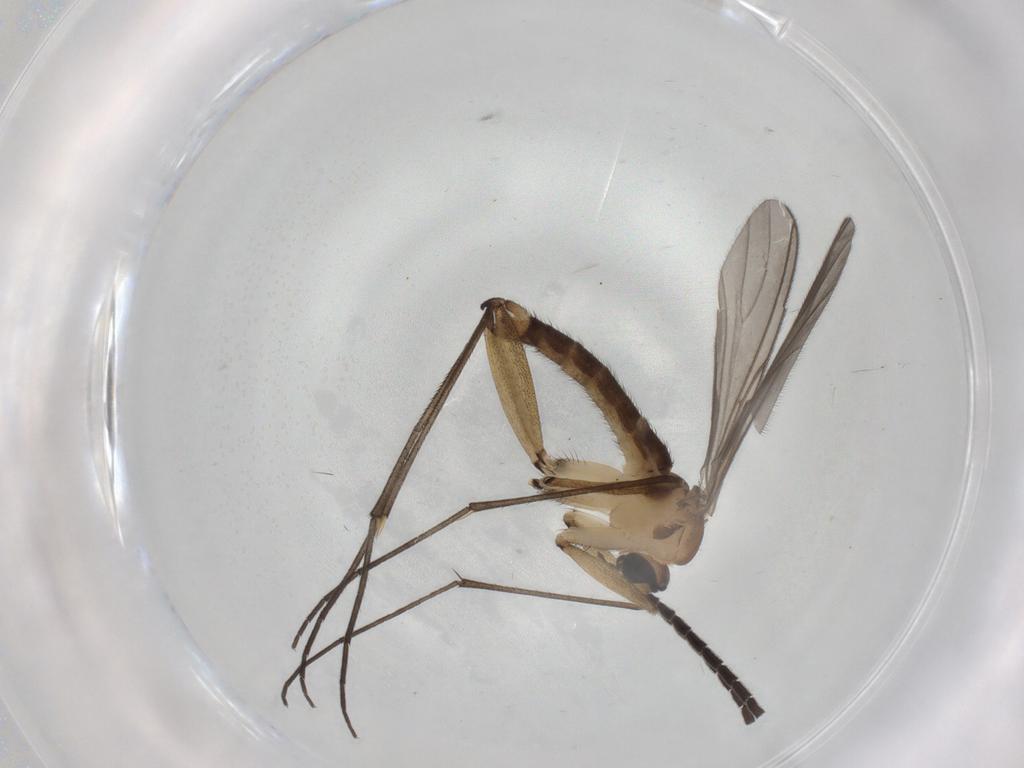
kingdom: Animalia
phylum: Arthropoda
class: Insecta
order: Diptera
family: Sciaridae
